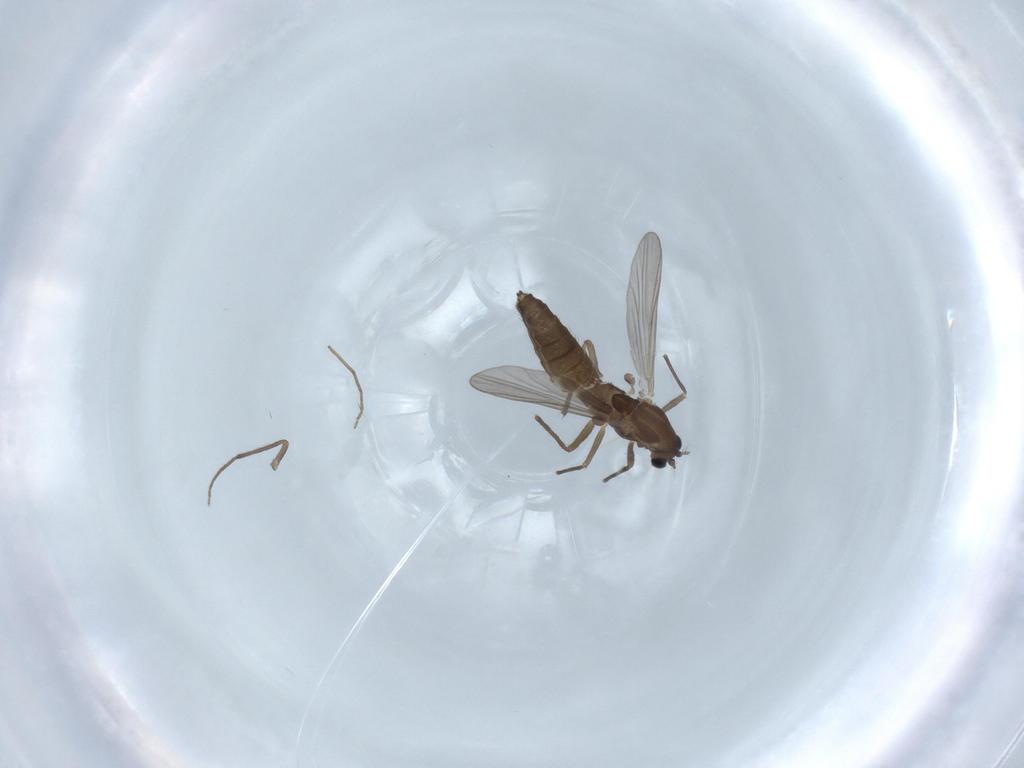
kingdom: Animalia
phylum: Arthropoda
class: Insecta
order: Diptera
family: Chironomidae
